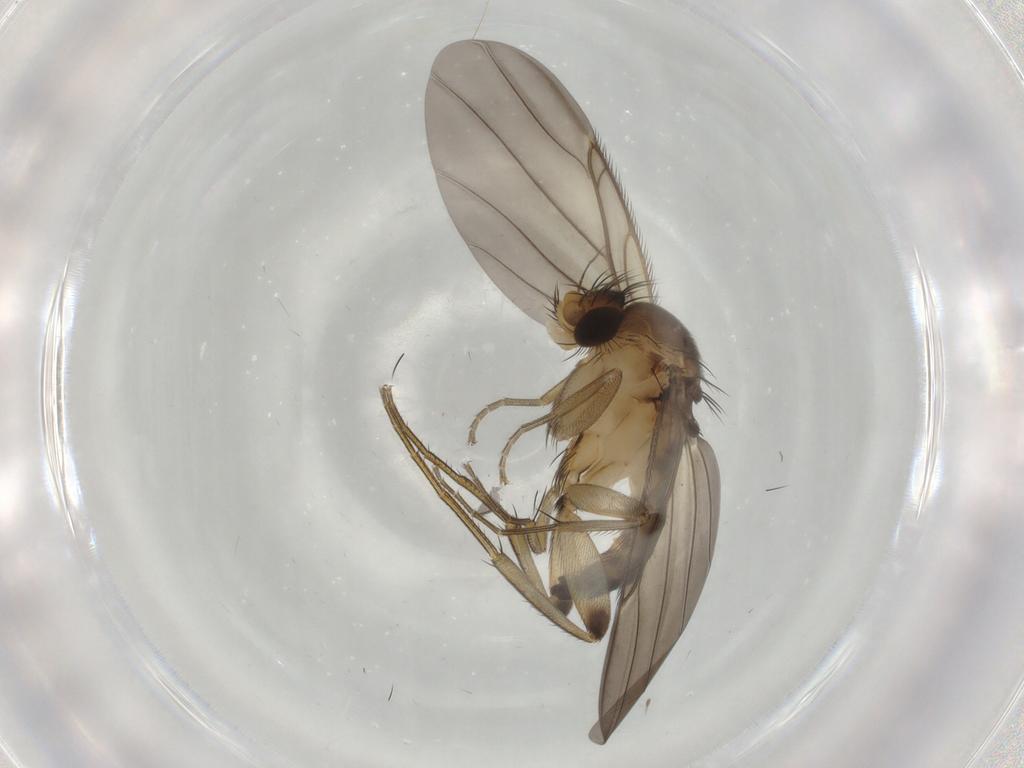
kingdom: Animalia
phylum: Arthropoda
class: Insecta
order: Diptera
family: Phoridae
